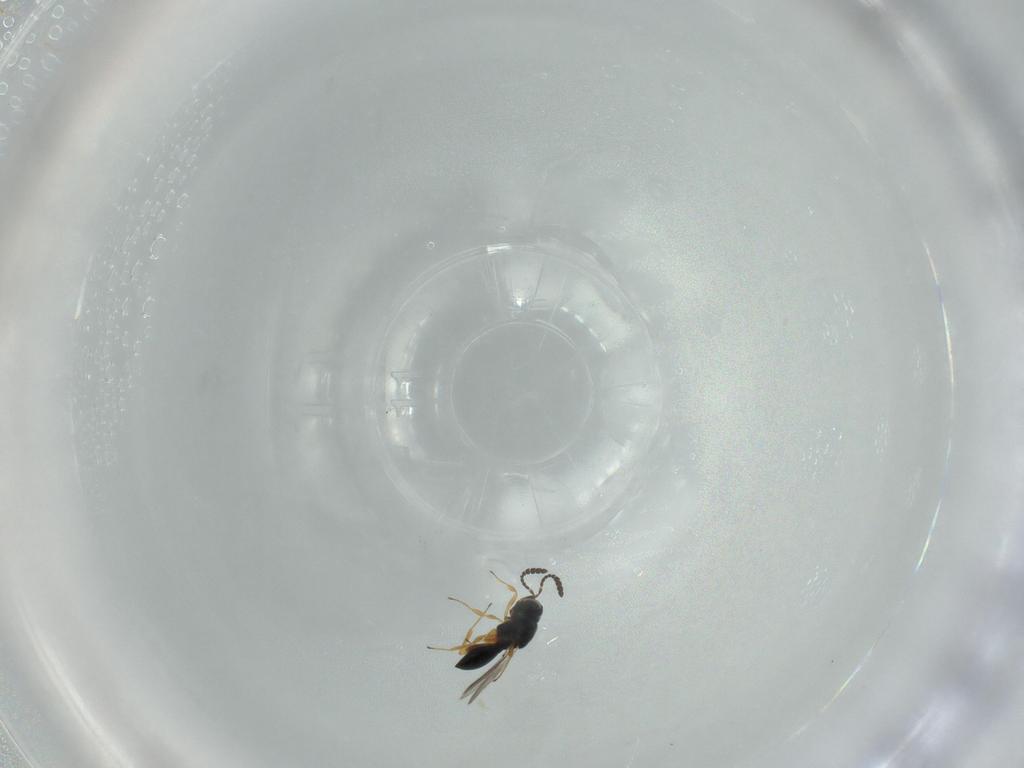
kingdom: Animalia
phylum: Arthropoda
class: Insecta
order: Hymenoptera
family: Scelionidae
